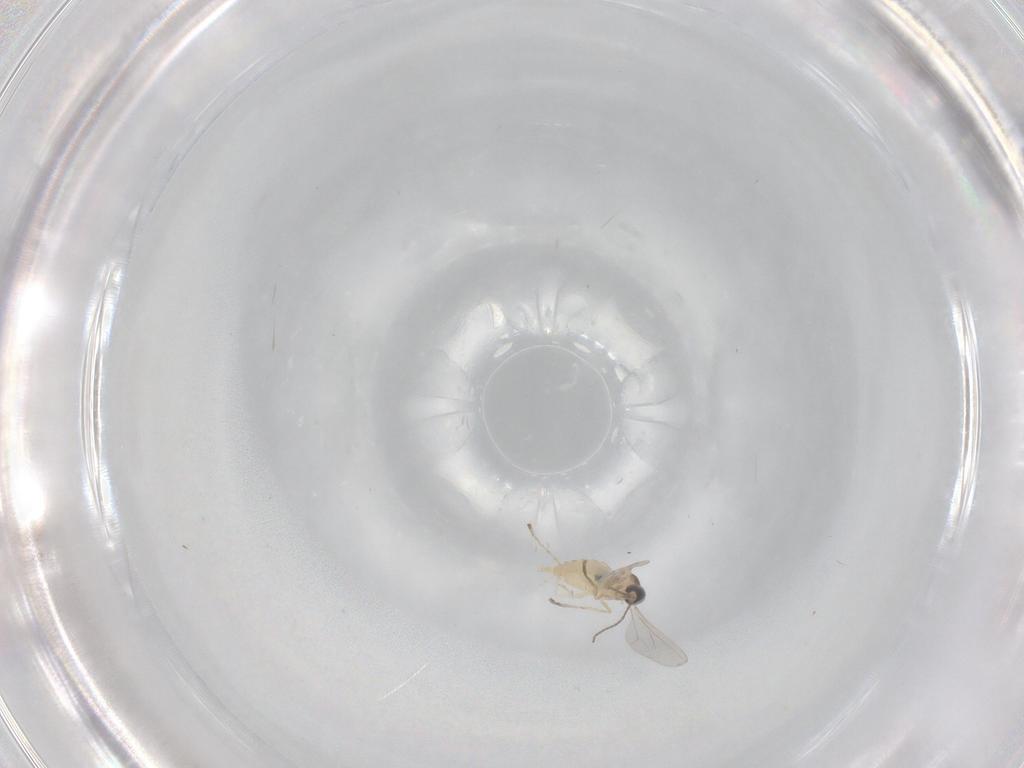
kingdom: Animalia
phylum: Arthropoda
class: Insecta
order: Diptera
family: Cecidomyiidae
